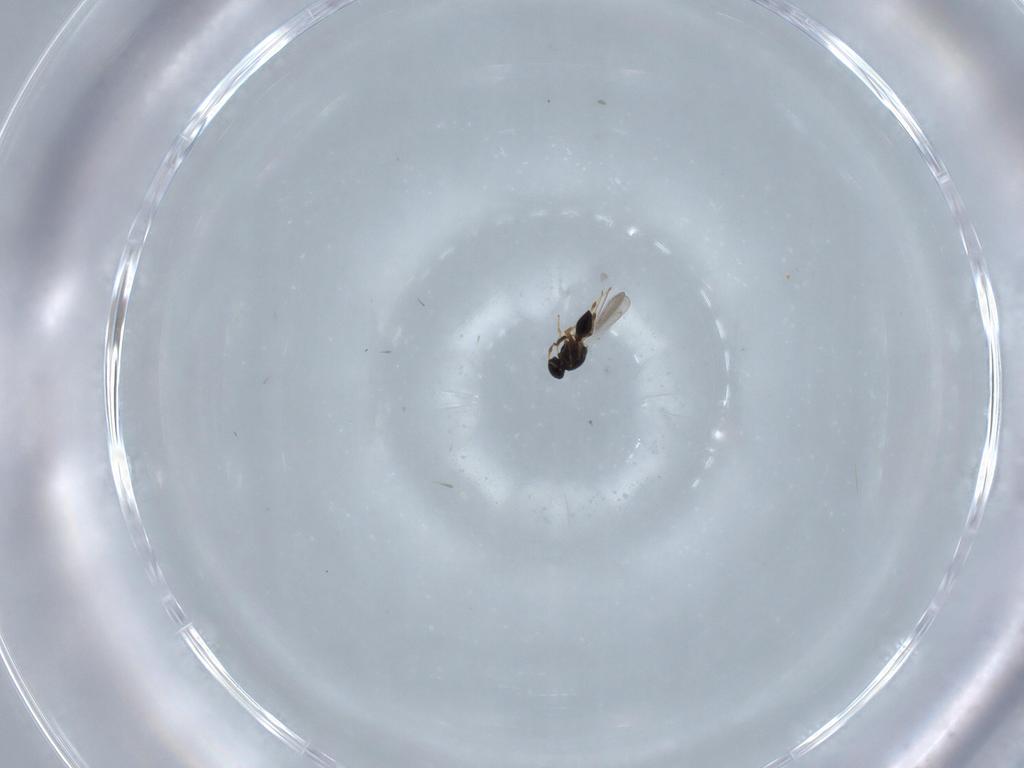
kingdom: Animalia
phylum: Arthropoda
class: Insecta
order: Hymenoptera
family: Platygastridae
